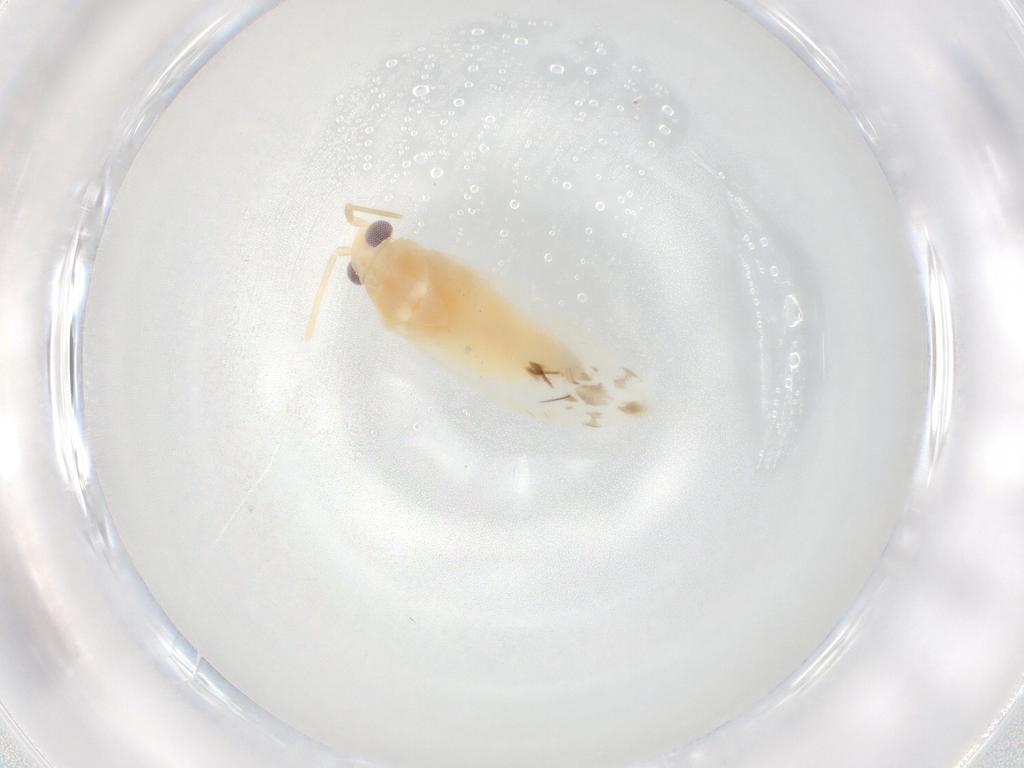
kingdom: Animalia
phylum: Arthropoda
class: Insecta
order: Hemiptera
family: Miridae
